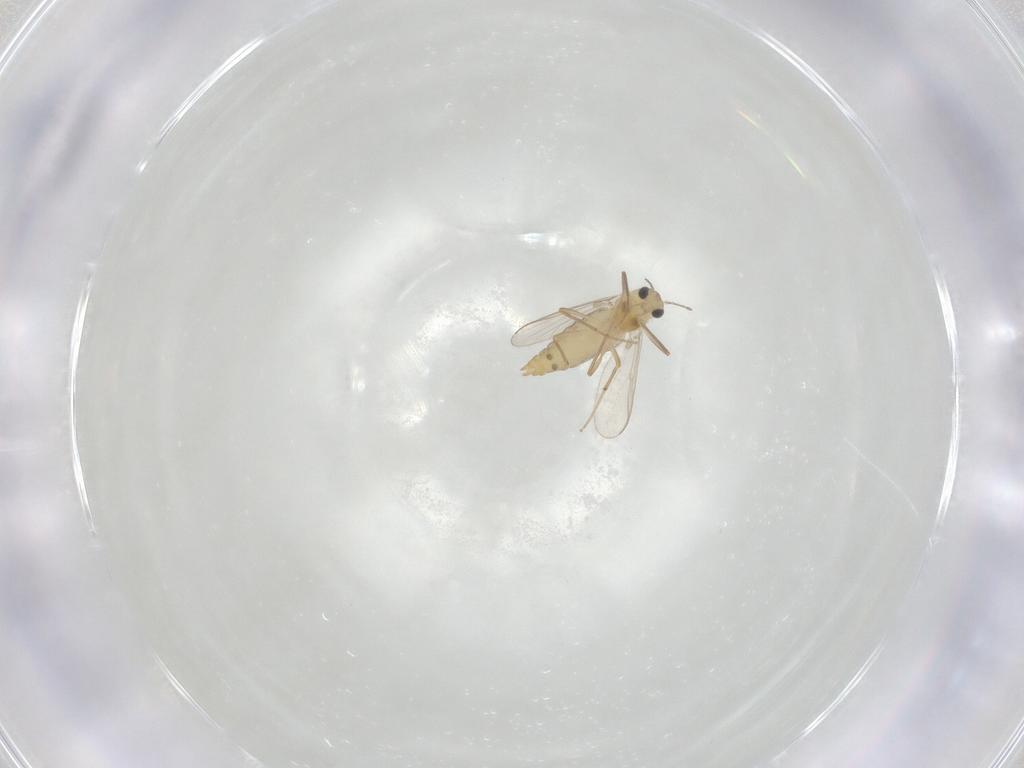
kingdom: Animalia
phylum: Arthropoda
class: Insecta
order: Diptera
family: Chironomidae
